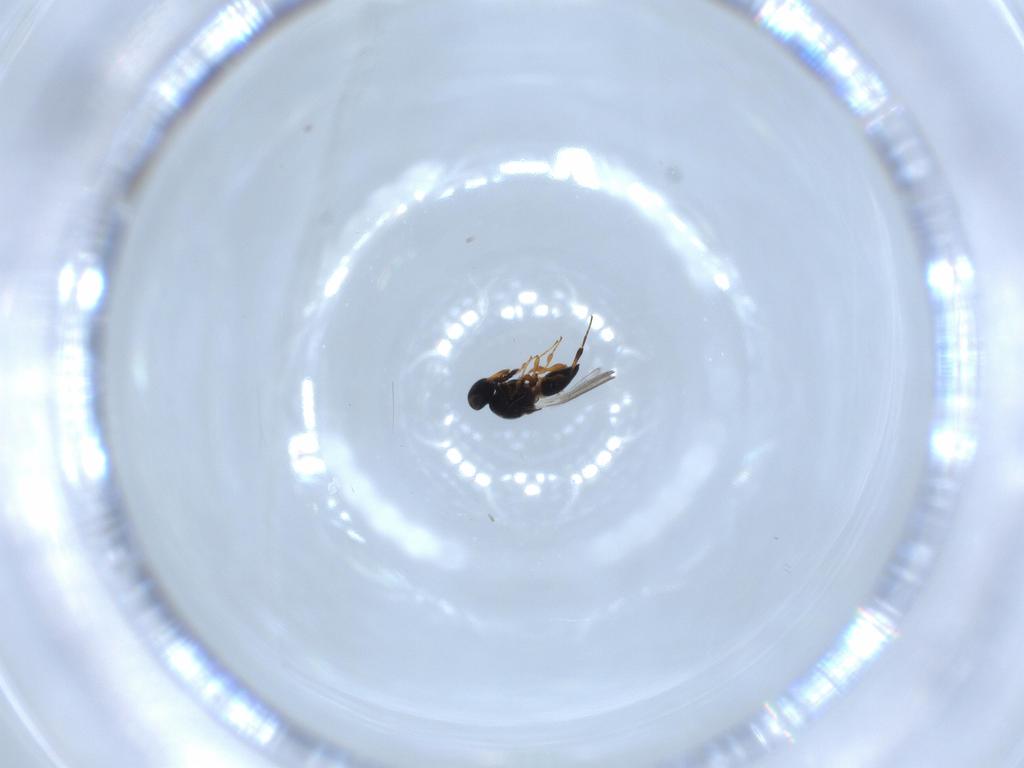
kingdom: Animalia
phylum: Arthropoda
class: Insecta
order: Hymenoptera
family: Platygastridae
